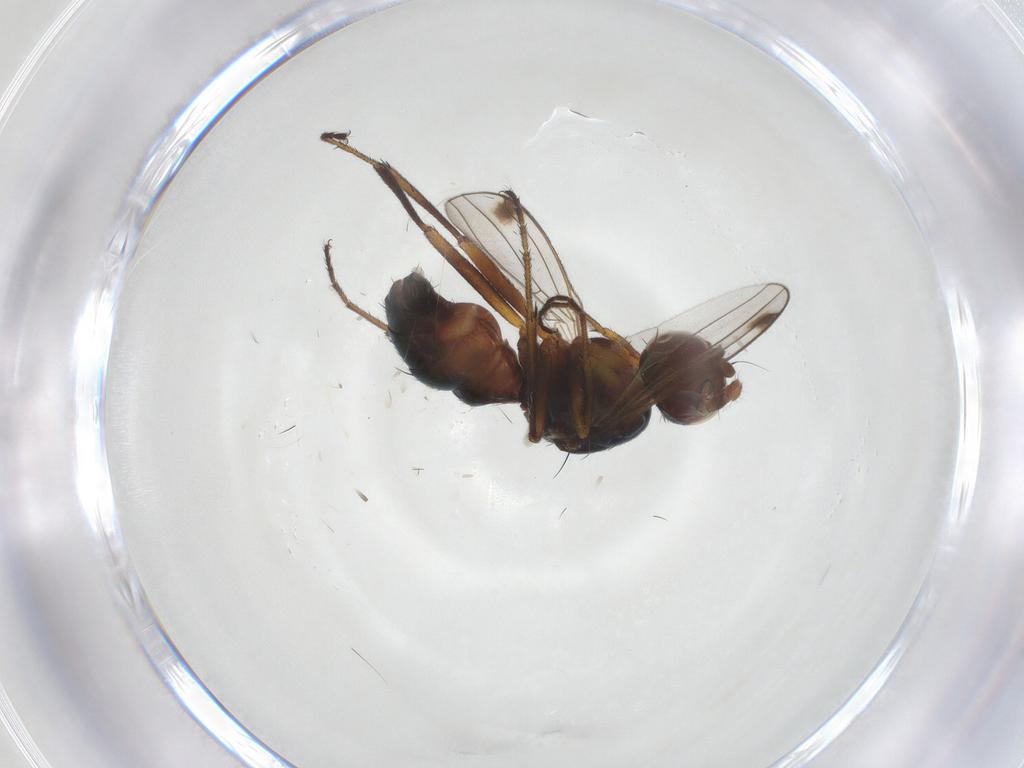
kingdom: Animalia
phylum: Arthropoda
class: Insecta
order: Diptera
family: Sepsidae
